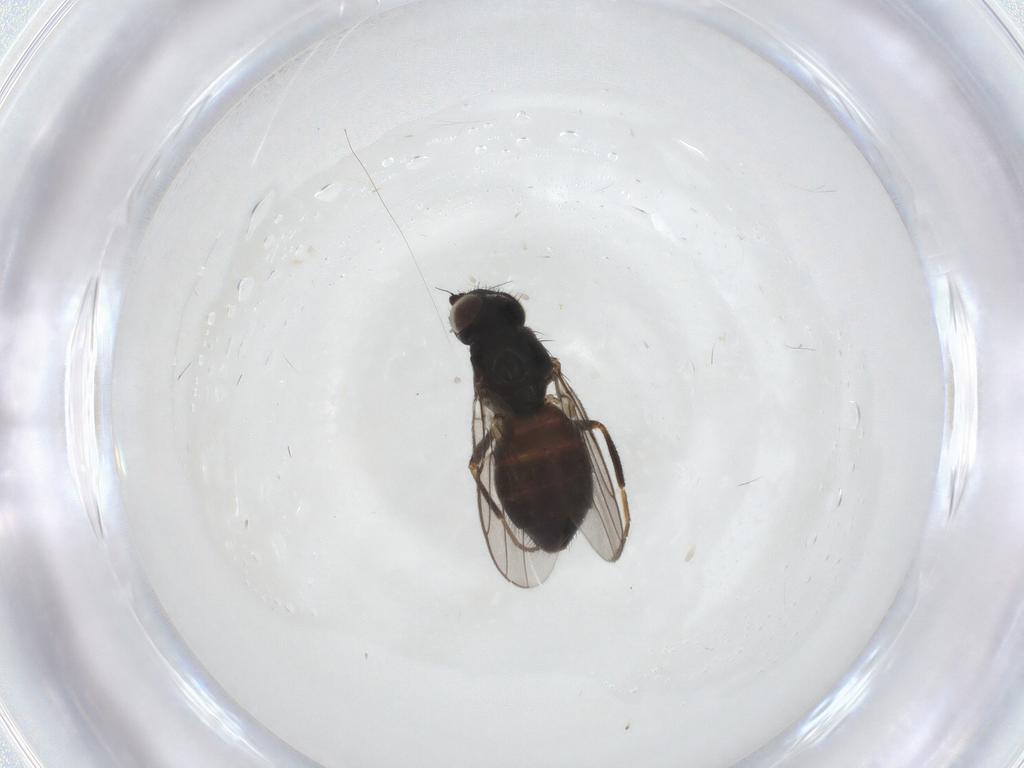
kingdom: Animalia
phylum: Arthropoda
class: Insecta
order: Diptera
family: Chloropidae
